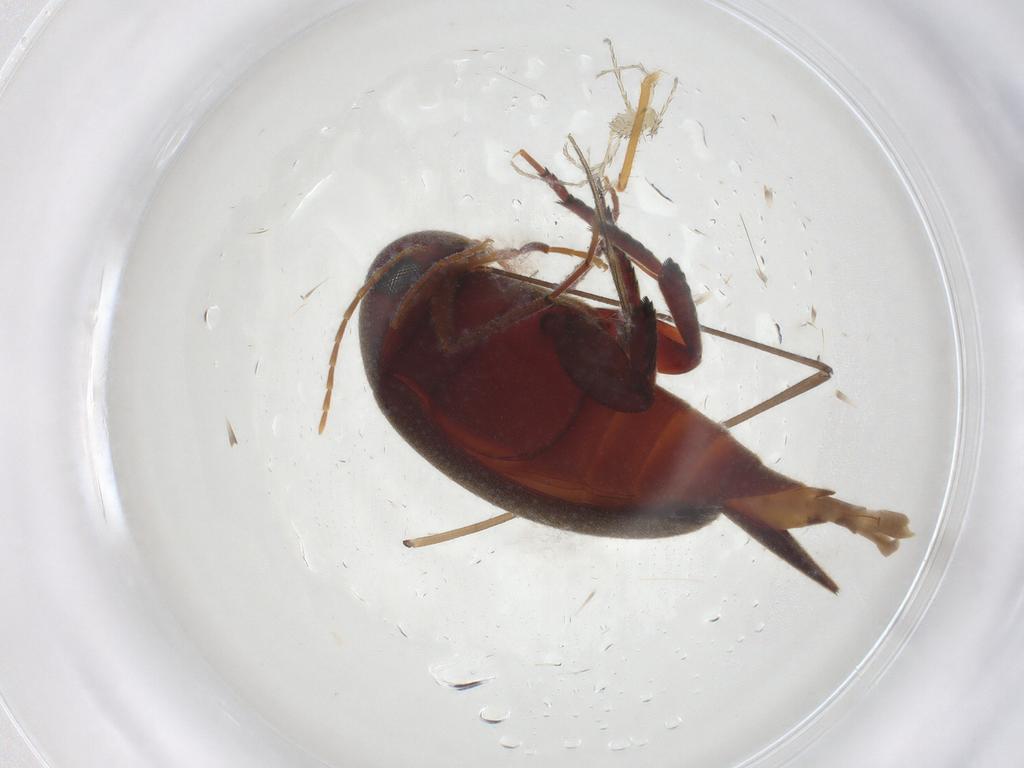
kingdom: Animalia
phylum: Arthropoda
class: Insecta
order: Coleoptera
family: Mordellidae
